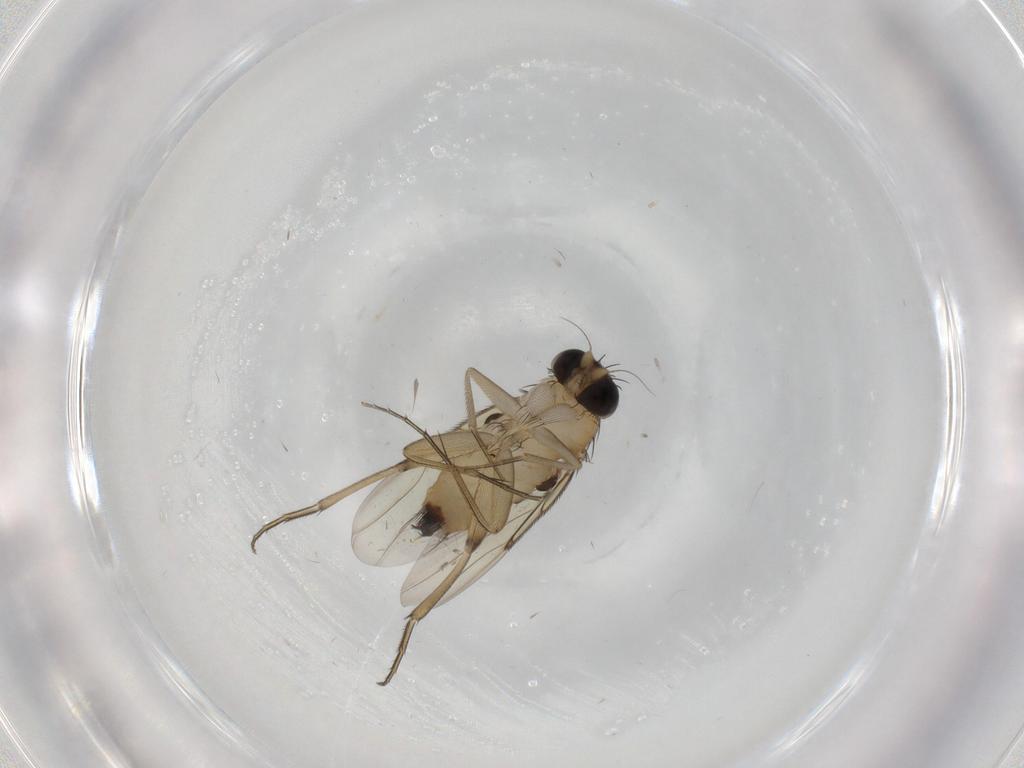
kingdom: Animalia
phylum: Arthropoda
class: Insecta
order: Diptera
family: Phoridae
